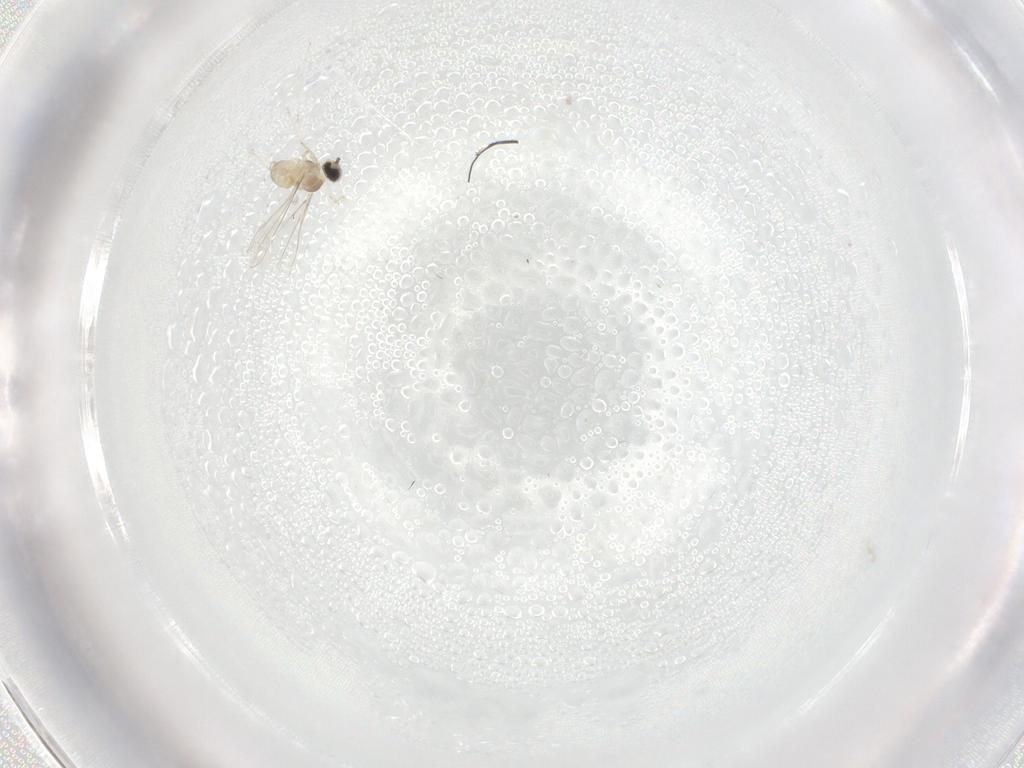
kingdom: Animalia
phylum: Arthropoda
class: Insecta
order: Diptera
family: Cecidomyiidae
